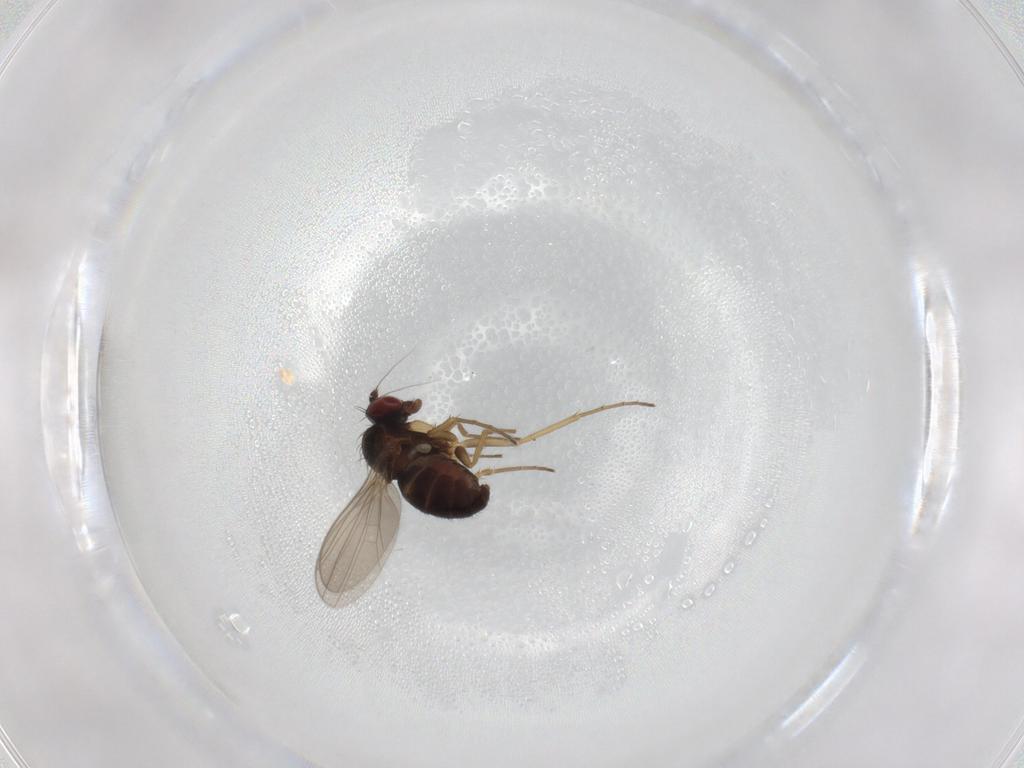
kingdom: Animalia
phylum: Arthropoda
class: Insecta
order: Diptera
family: Dolichopodidae
